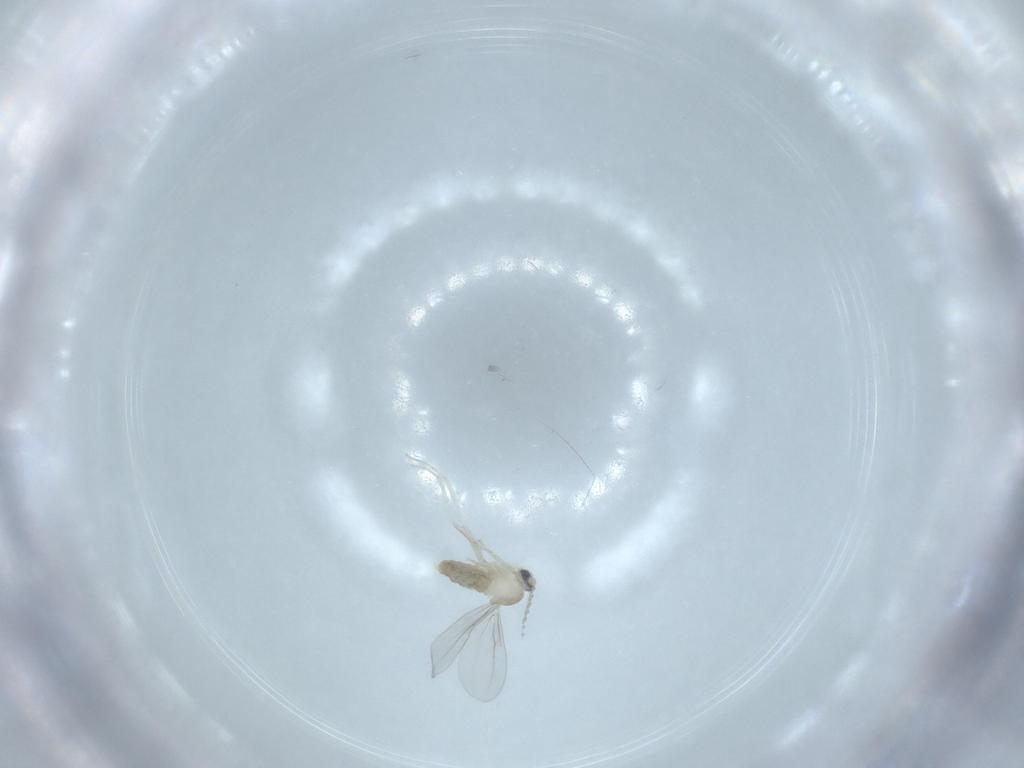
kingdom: Animalia
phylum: Arthropoda
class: Insecta
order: Diptera
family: Cecidomyiidae
